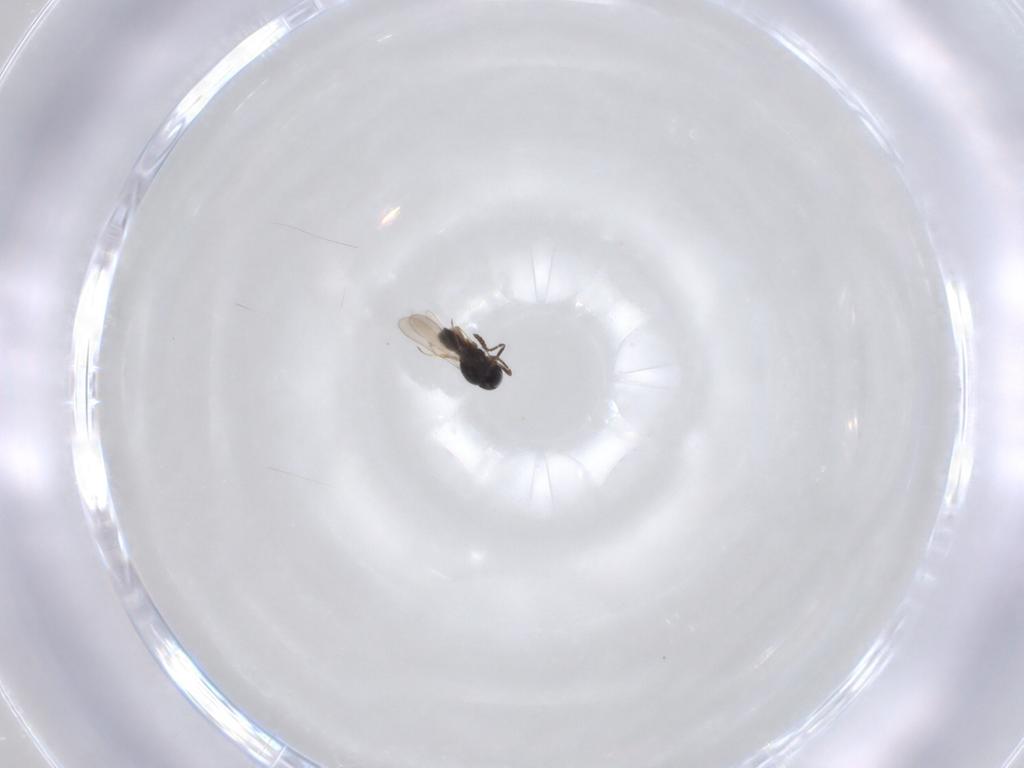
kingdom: Animalia
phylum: Arthropoda
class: Insecta
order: Hymenoptera
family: Scelionidae
